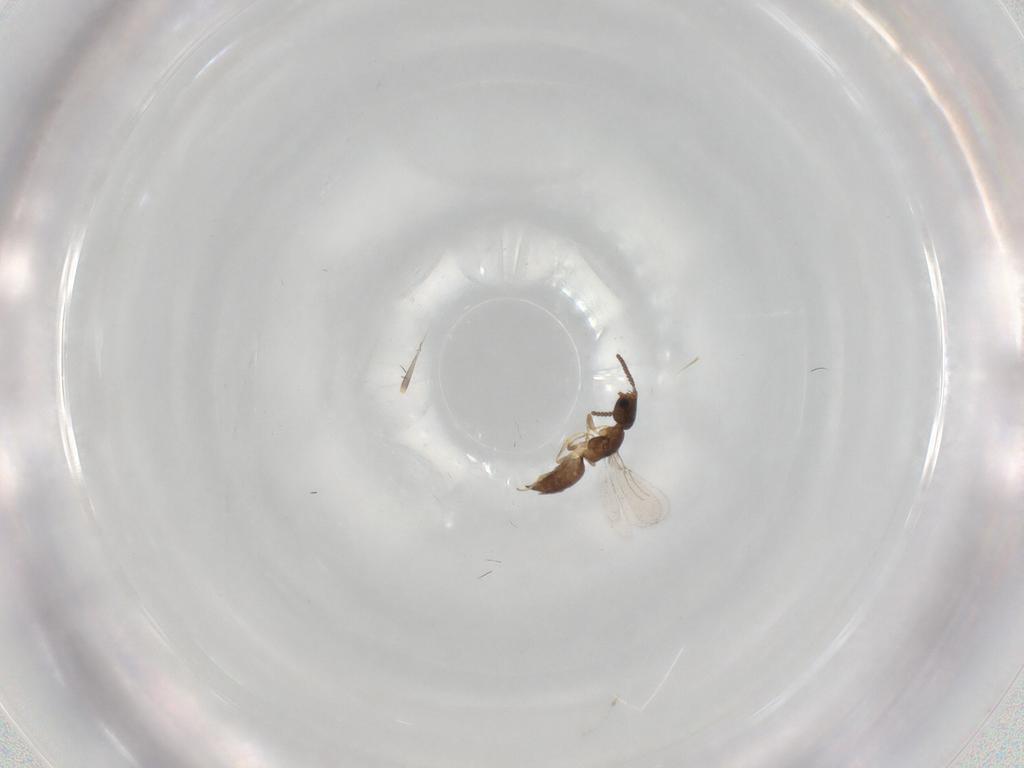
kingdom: Animalia
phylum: Arthropoda
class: Insecta
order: Hymenoptera
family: Bethylidae
